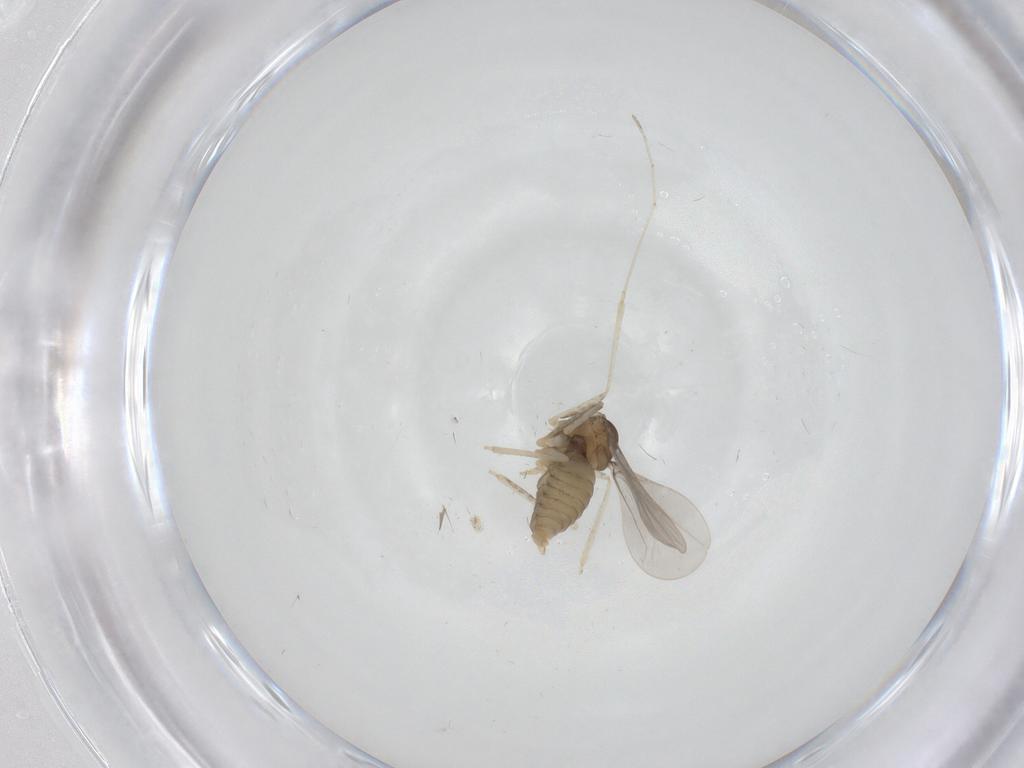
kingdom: Animalia
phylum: Arthropoda
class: Insecta
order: Diptera
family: Cecidomyiidae
